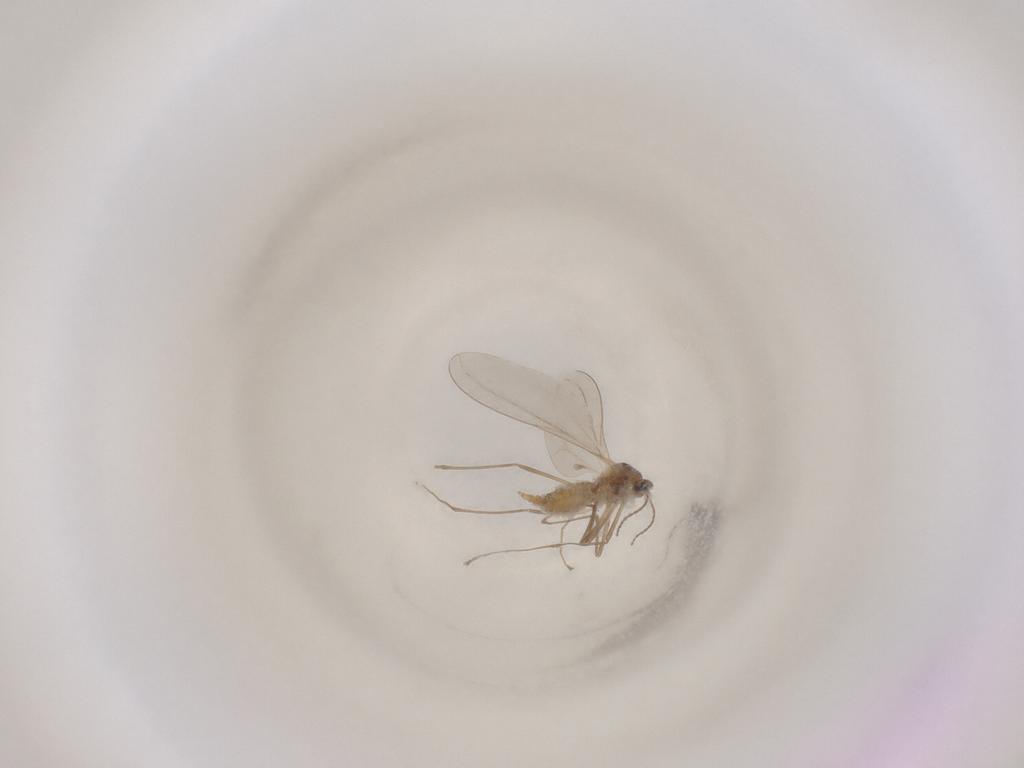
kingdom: Animalia
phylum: Arthropoda
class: Insecta
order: Diptera
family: Cecidomyiidae
